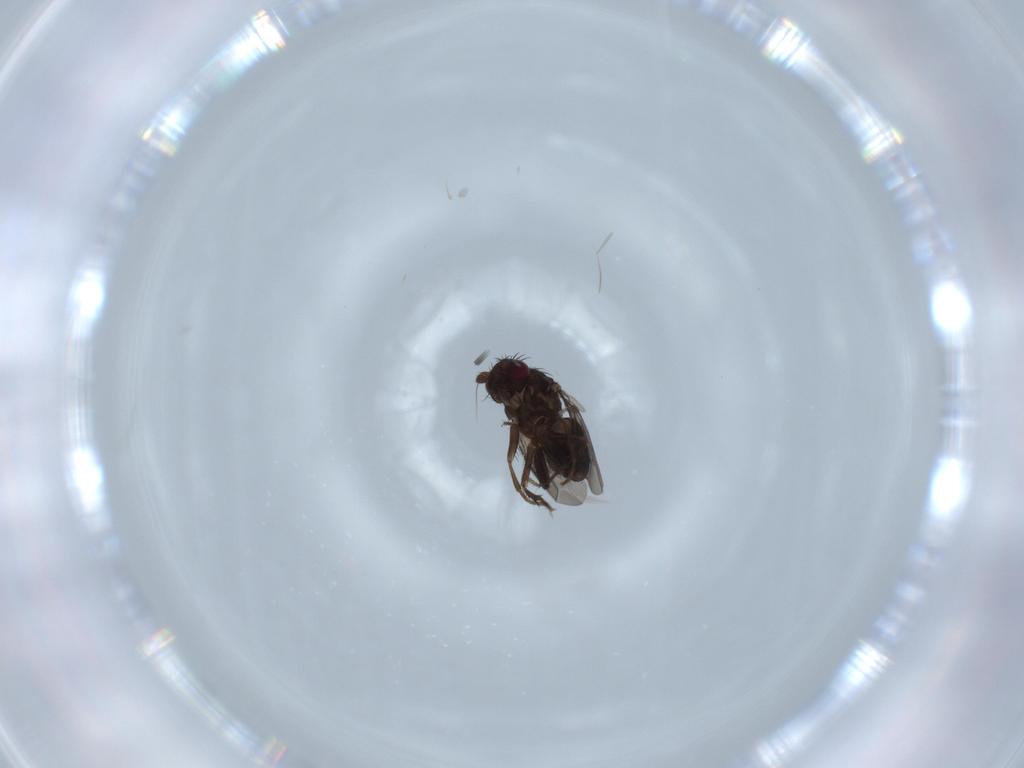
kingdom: Animalia
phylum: Arthropoda
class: Insecta
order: Diptera
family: Sphaeroceridae
